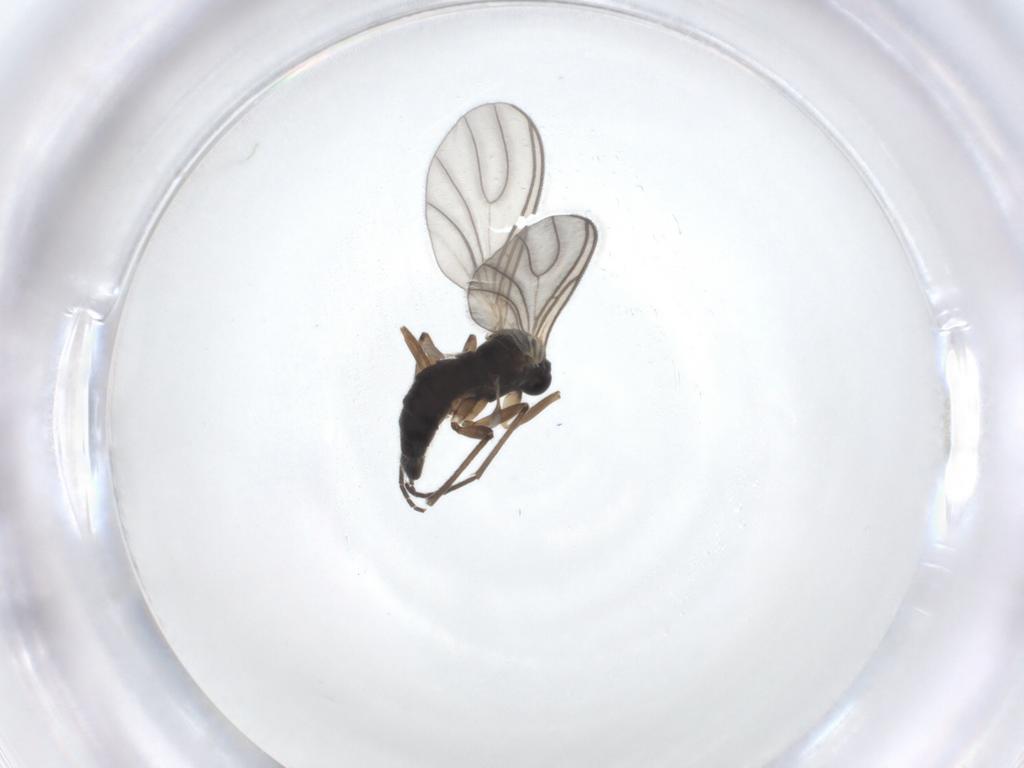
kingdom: Animalia
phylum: Arthropoda
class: Insecta
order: Diptera
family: Sciaridae
